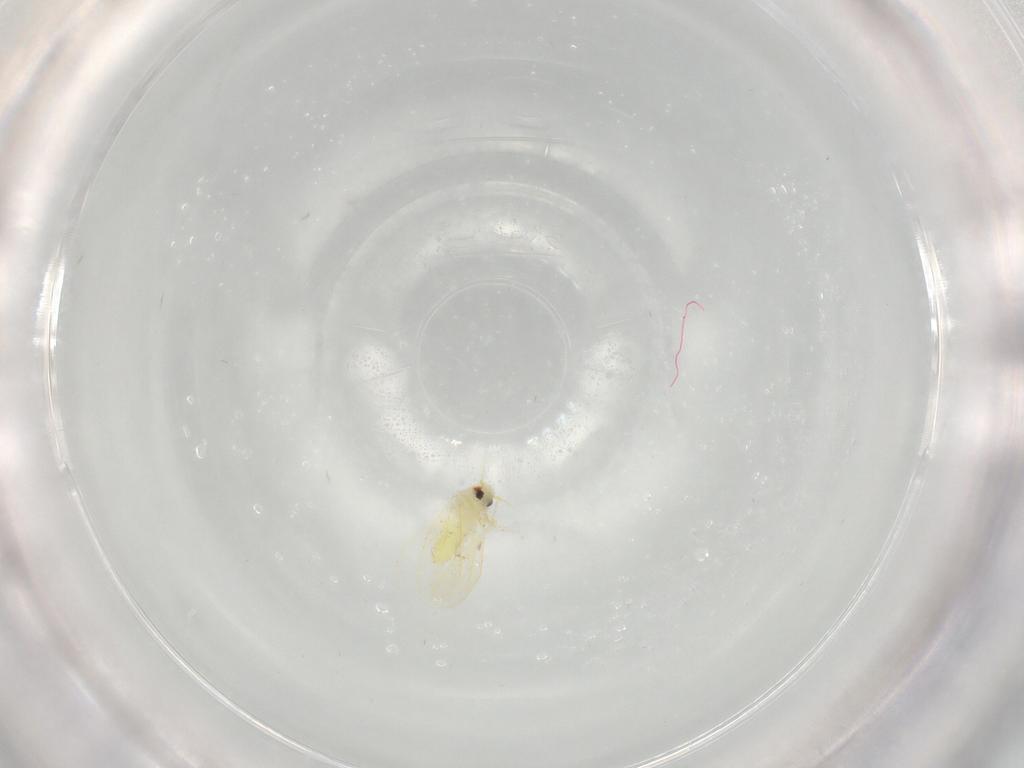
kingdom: Animalia
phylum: Arthropoda
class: Insecta
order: Hemiptera
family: Aleyrodidae
